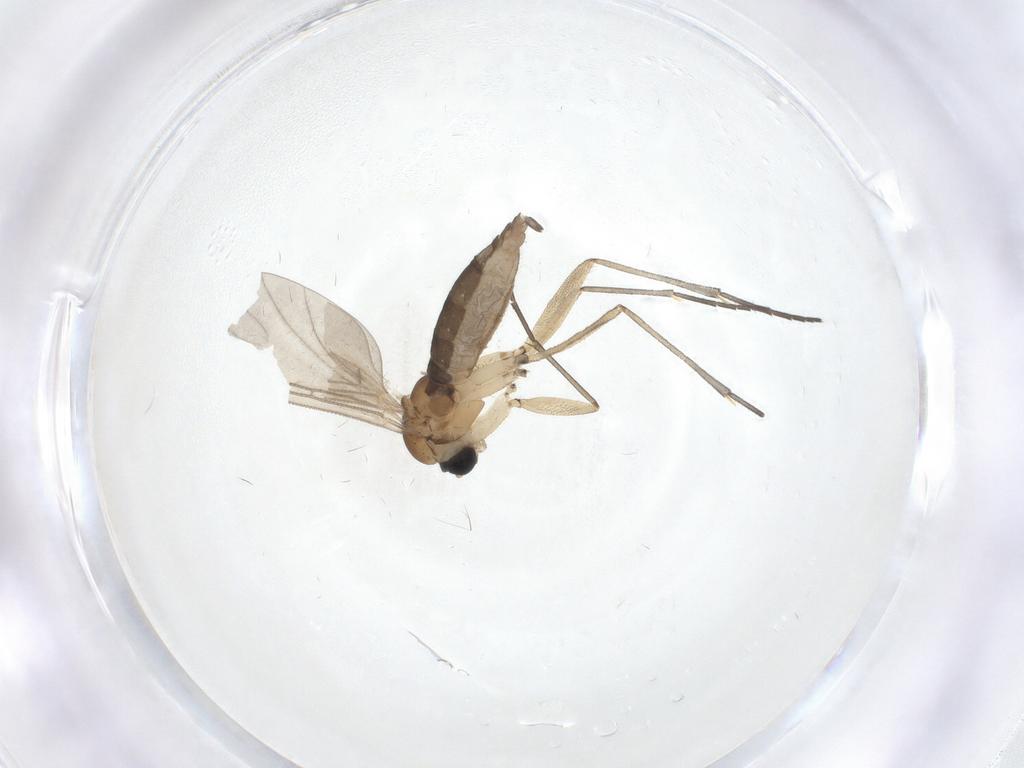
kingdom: Animalia
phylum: Arthropoda
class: Insecta
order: Diptera
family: Sciaridae
